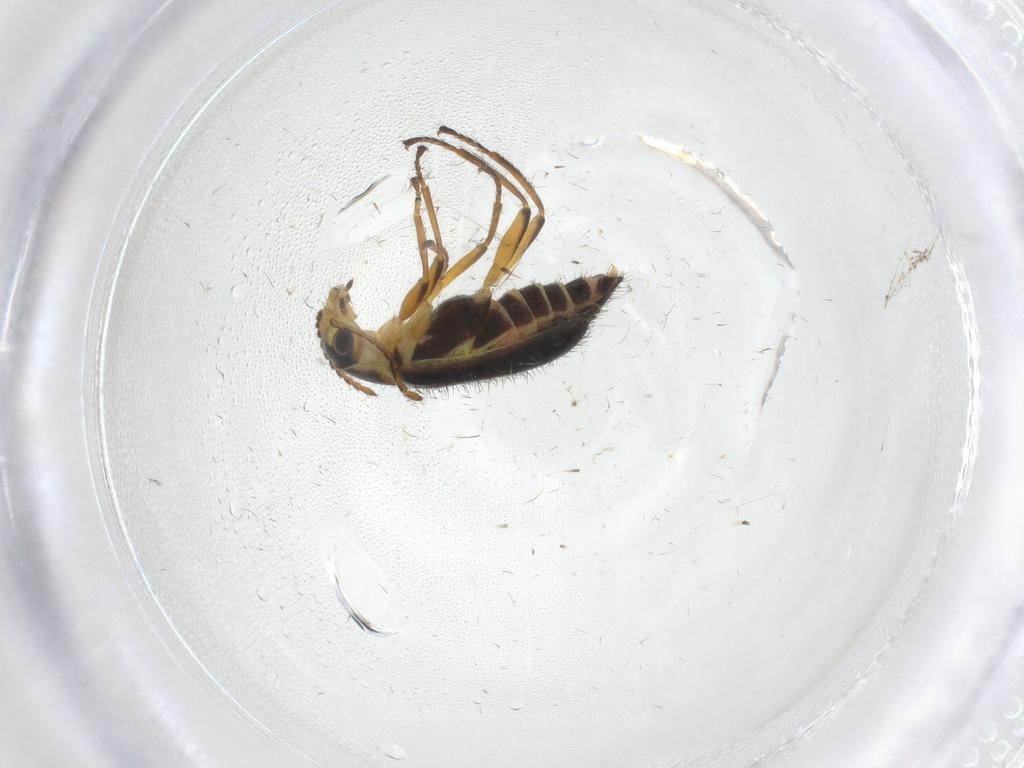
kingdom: Animalia
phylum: Arthropoda
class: Insecta
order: Coleoptera
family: Melyridae
